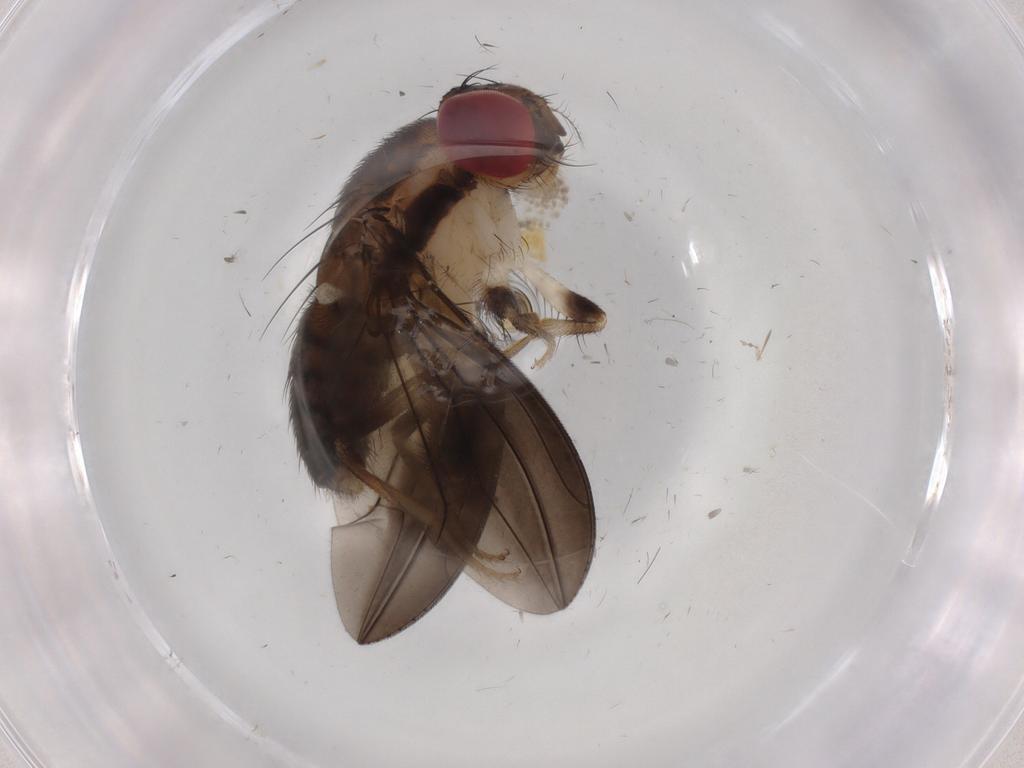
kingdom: Animalia
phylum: Arthropoda
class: Insecta
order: Diptera
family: Drosophilidae
